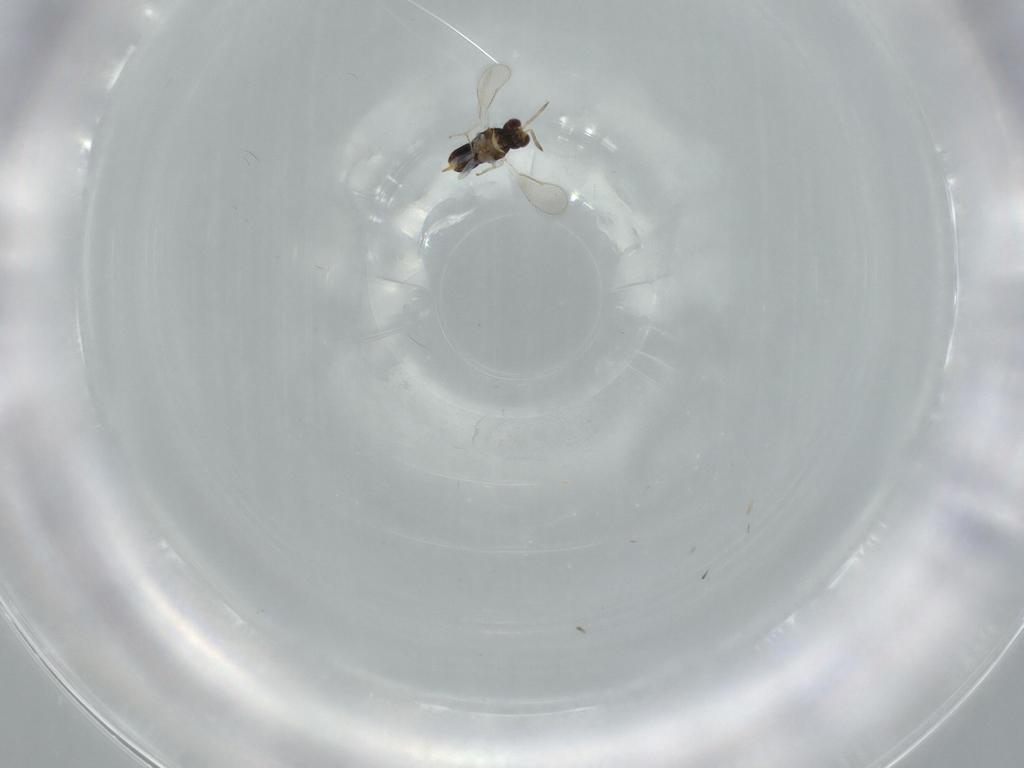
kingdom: Animalia
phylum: Arthropoda
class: Insecta
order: Hymenoptera
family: Aphelinidae
